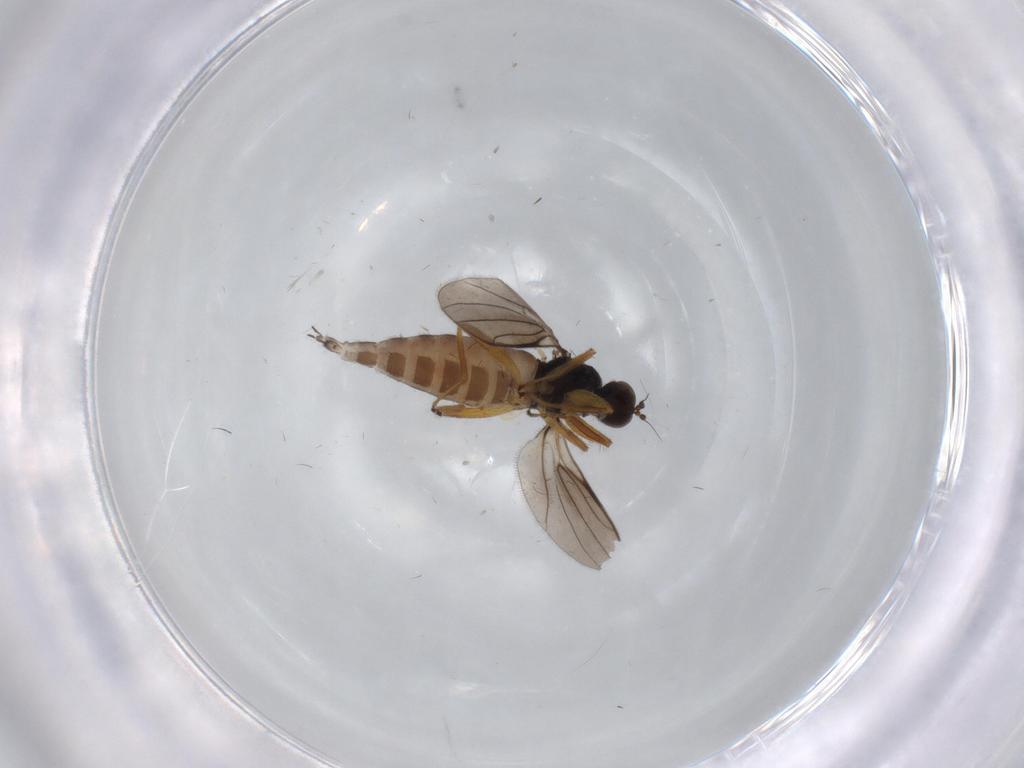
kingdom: Animalia
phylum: Arthropoda
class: Insecta
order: Diptera
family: Hybotidae
